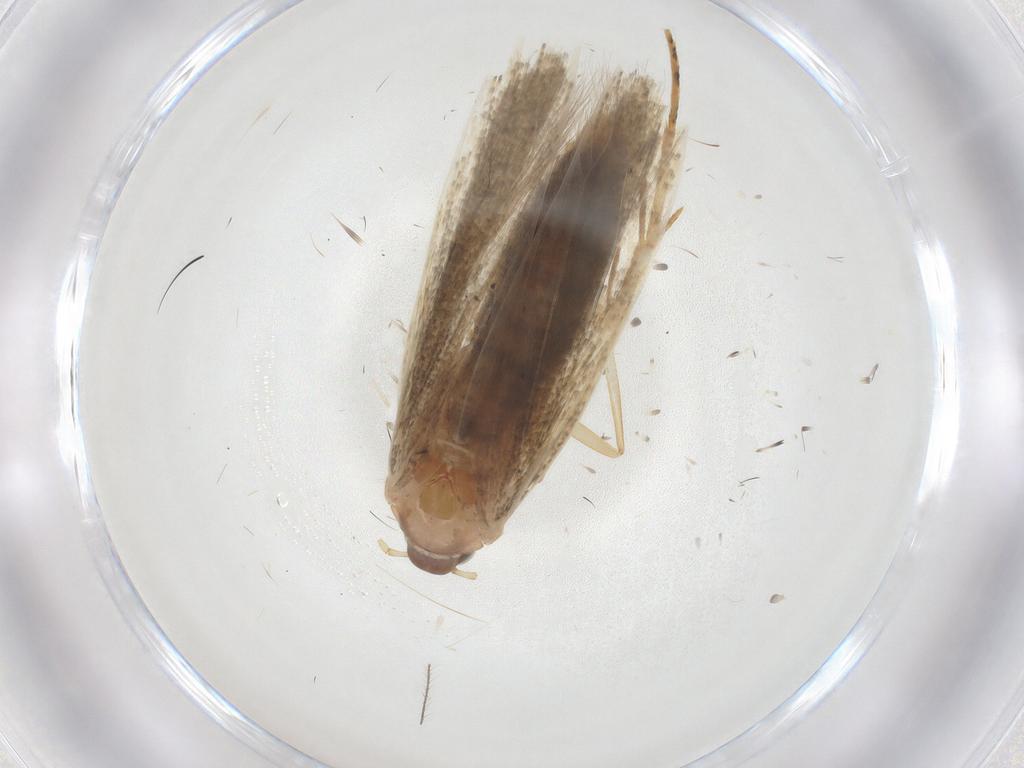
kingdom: Animalia
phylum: Arthropoda
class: Insecta
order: Lepidoptera
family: Crambidae
